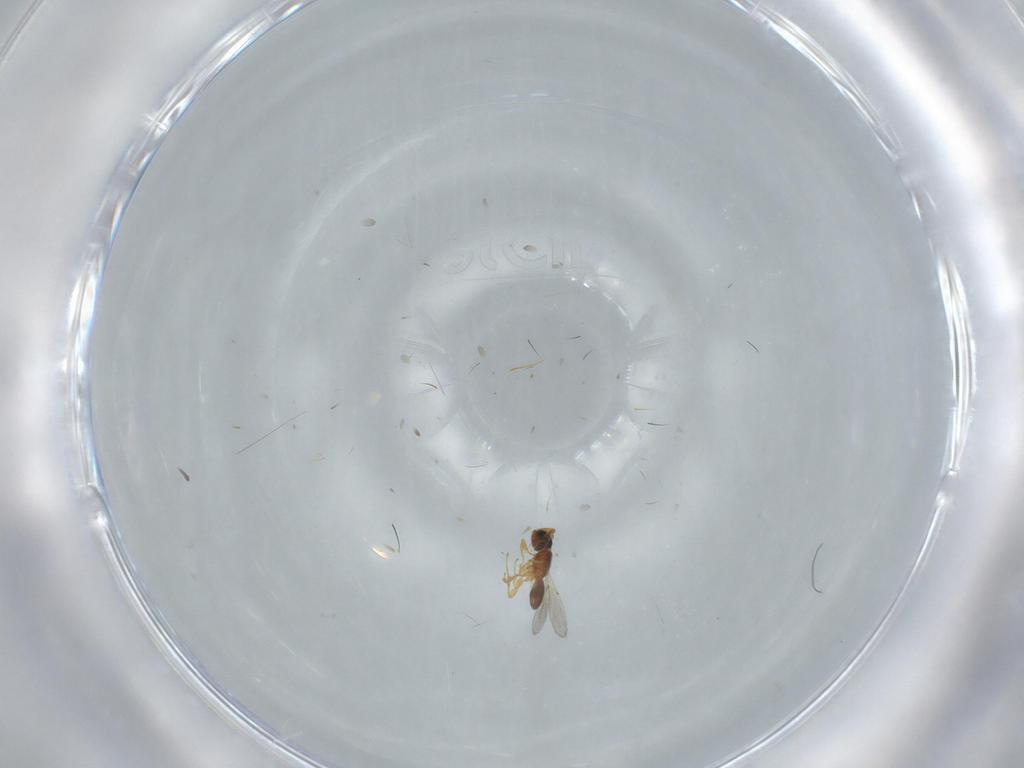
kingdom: Animalia
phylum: Arthropoda
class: Insecta
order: Hymenoptera
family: Diapriidae
